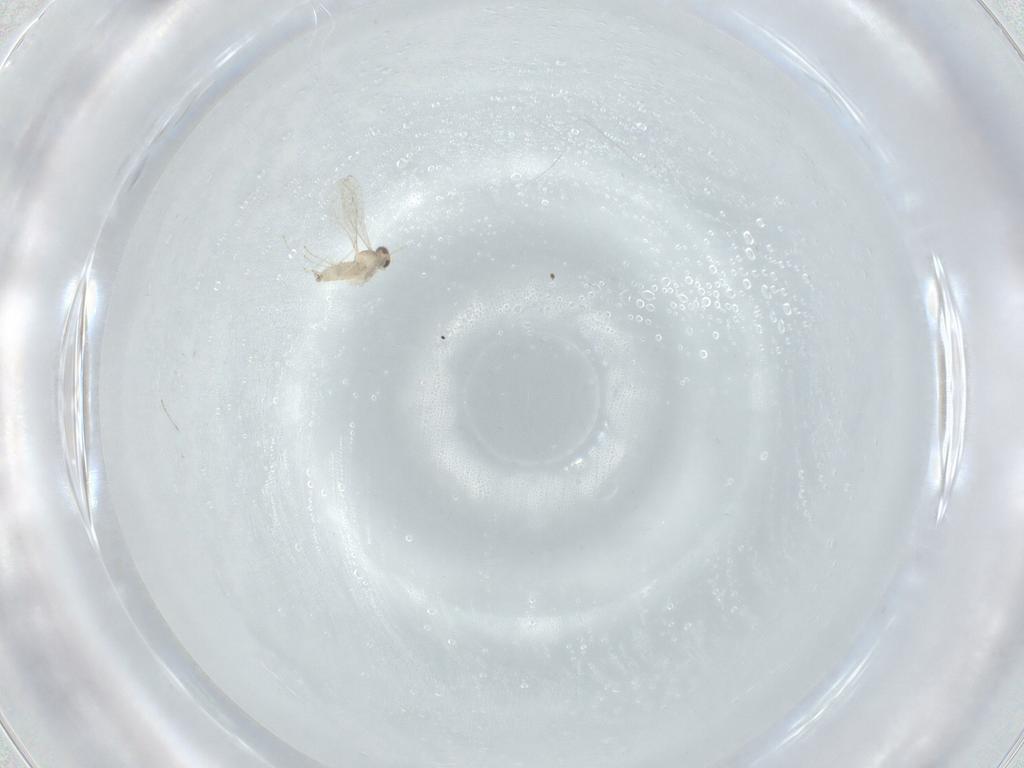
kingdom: Animalia
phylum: Arthropoda
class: Insecta
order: Diptera
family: Cecidomyiidae
